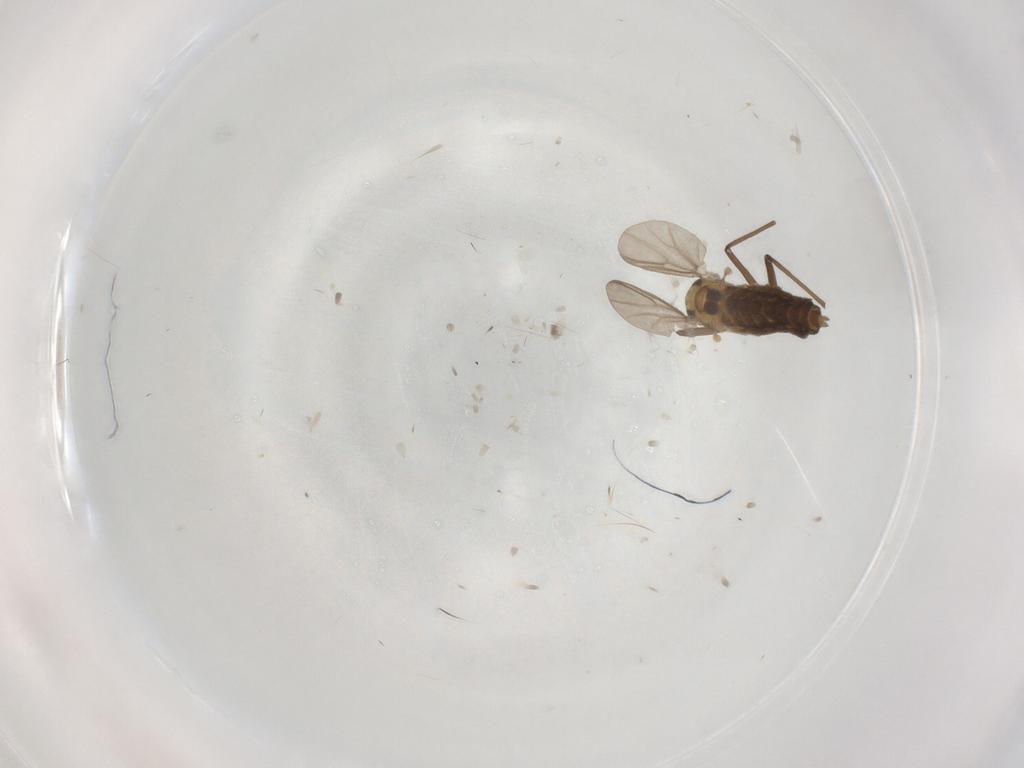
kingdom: Animalia
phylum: Arthropoda
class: Insecta
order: Diptera
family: Chironomidae
